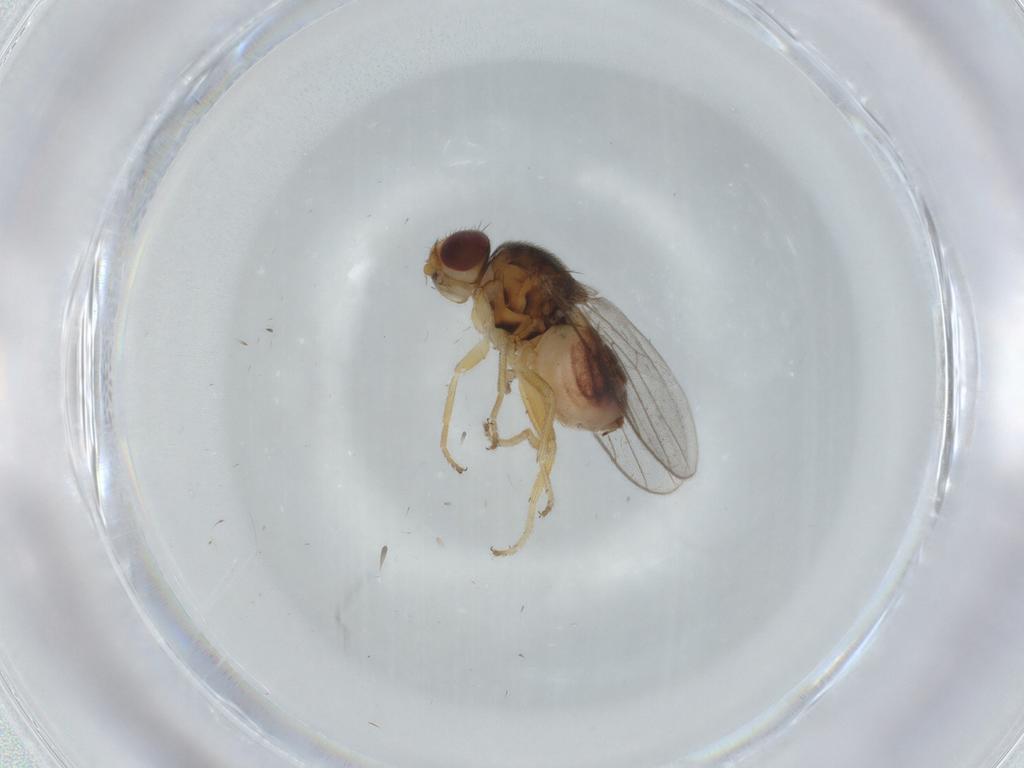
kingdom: Animalia
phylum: Arthropoda
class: Insecta
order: Diptera
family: Chloropidae
